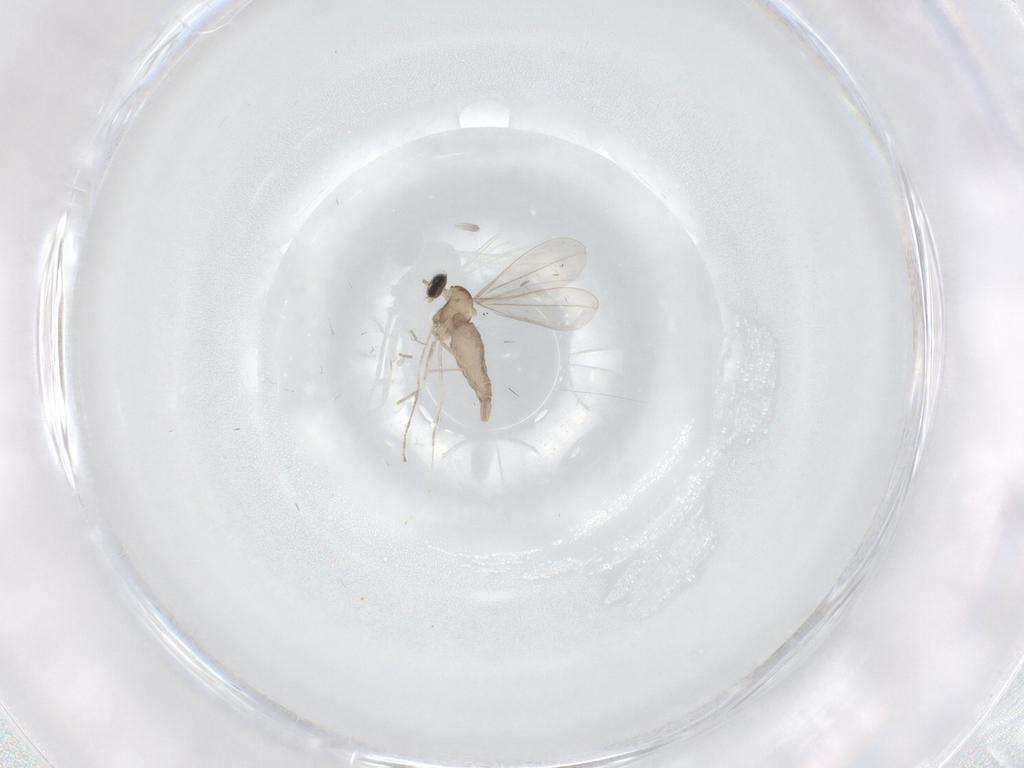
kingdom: Animalia
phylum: Arthropoda
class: Insecta
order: Diptera
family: Cecidomyiidae
